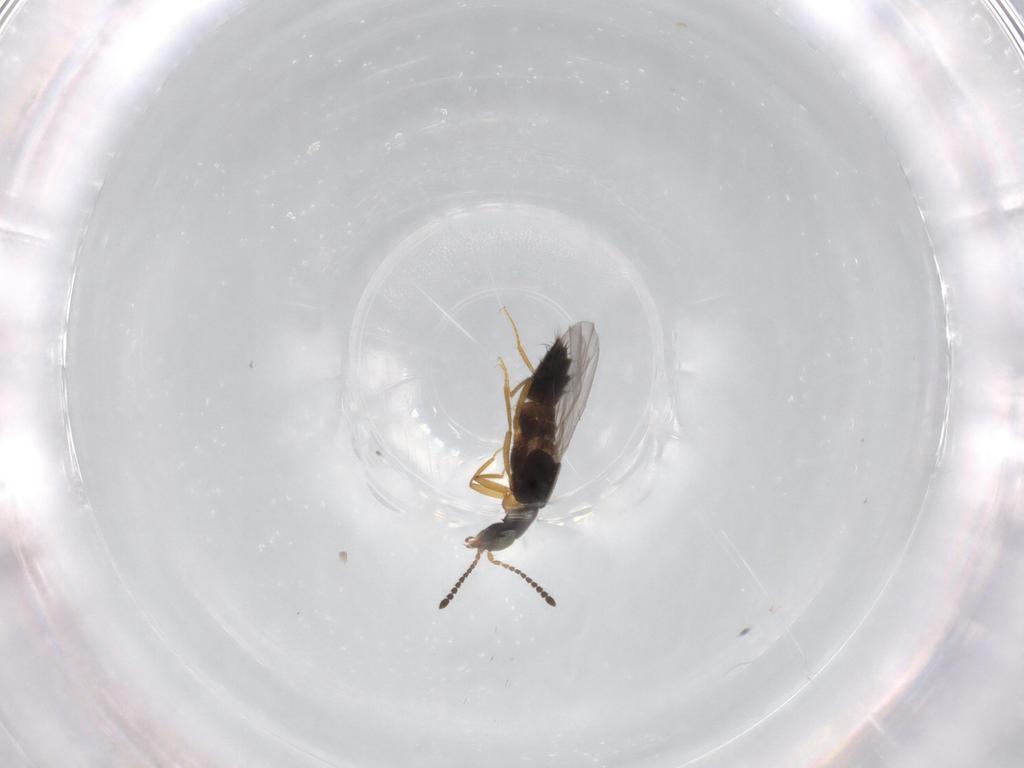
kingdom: Animalia
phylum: Arthropoda
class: Insecta
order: Coleoptera
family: Staphylinidae
